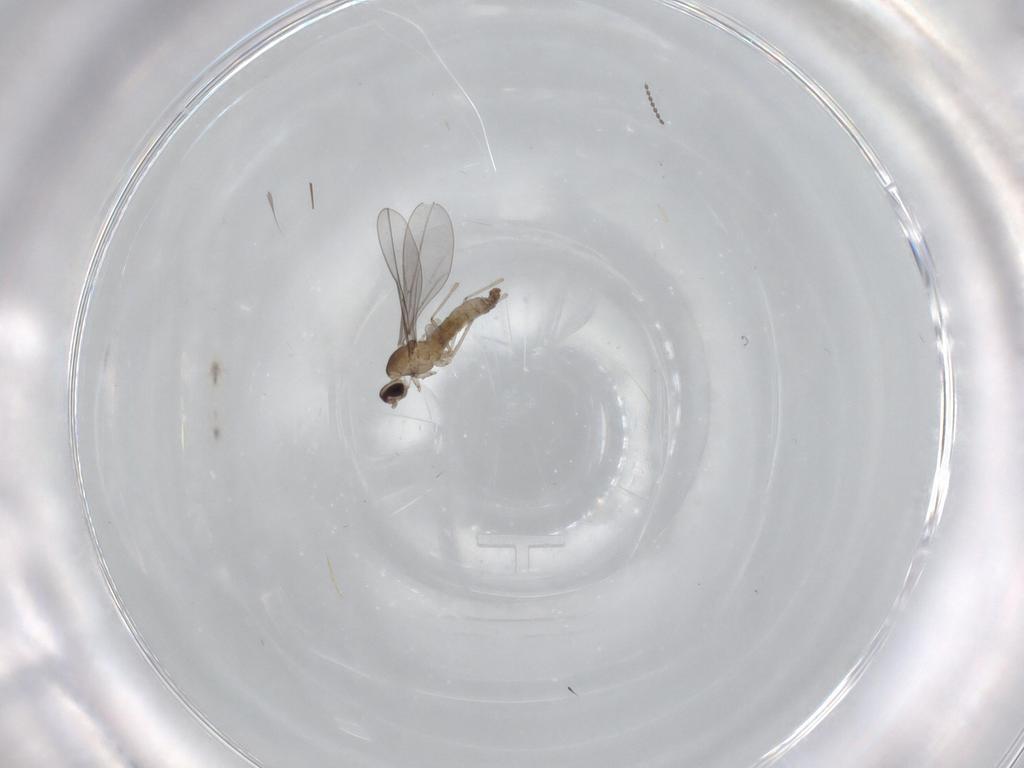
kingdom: Animalia
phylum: Arthropoda
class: Insecta
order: Diptera
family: Cecidomyiidae
